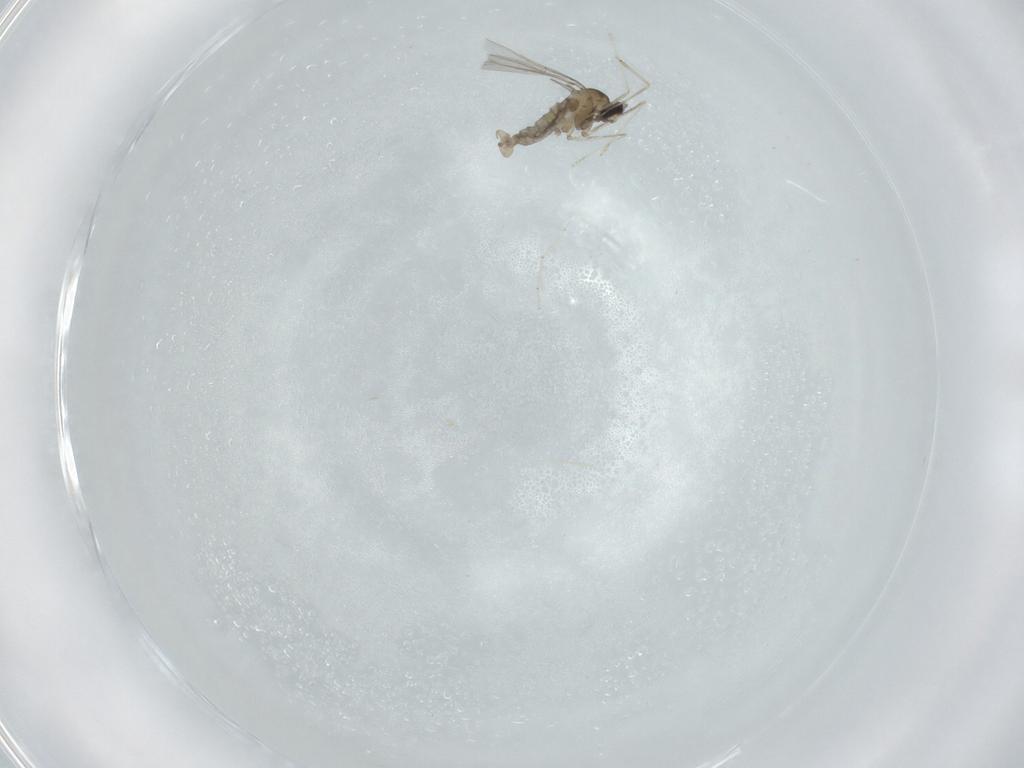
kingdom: Animalia
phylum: Arthropoda
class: Insecta
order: Diptera
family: Cecidomyiidae
